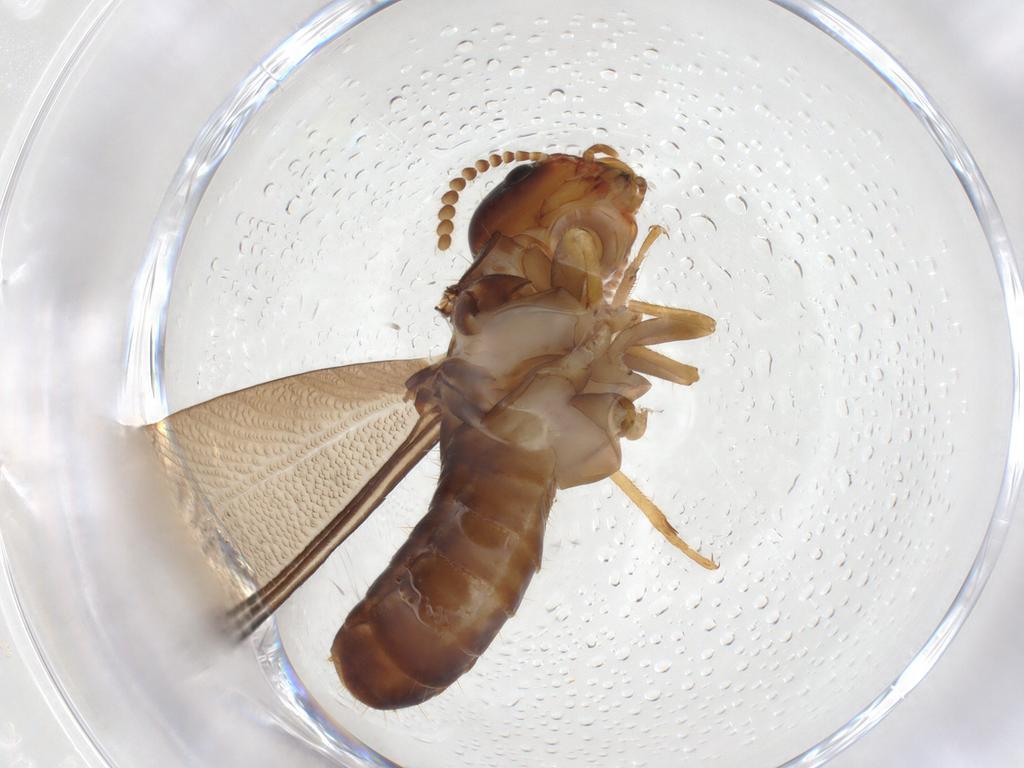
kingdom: Animalia
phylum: Arthropoda
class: Insecta
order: Blattodea
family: Kalotermitidae
